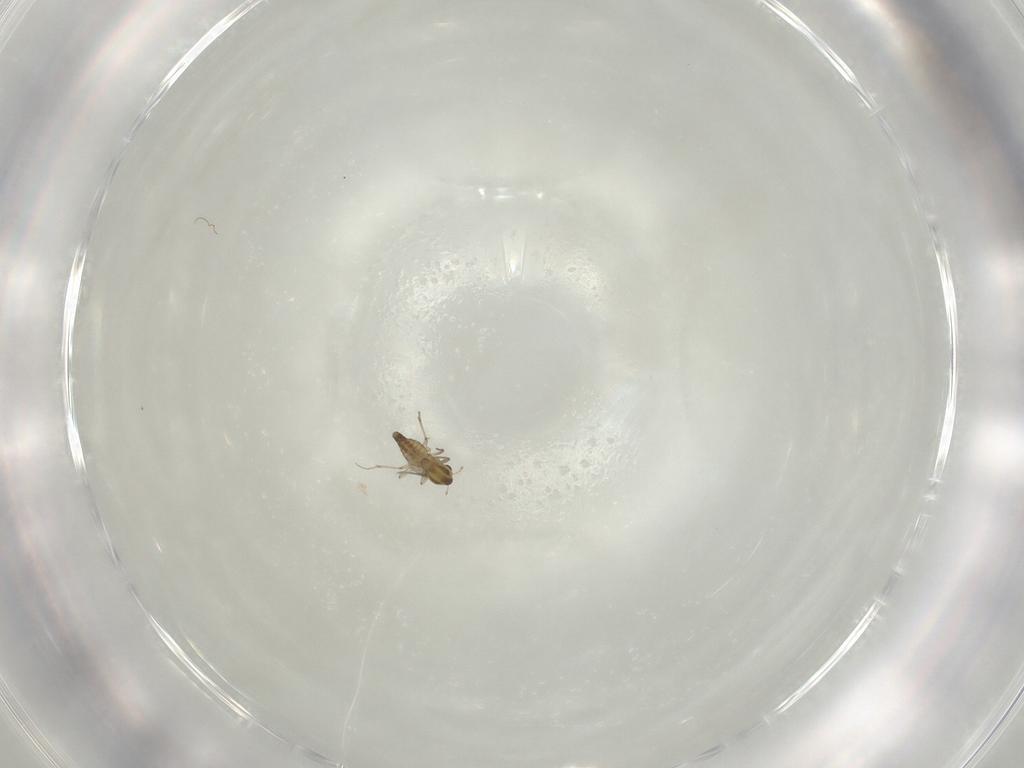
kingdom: Animalia
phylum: Arthropoda
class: Insecta
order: Diptera
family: Chironomidae
